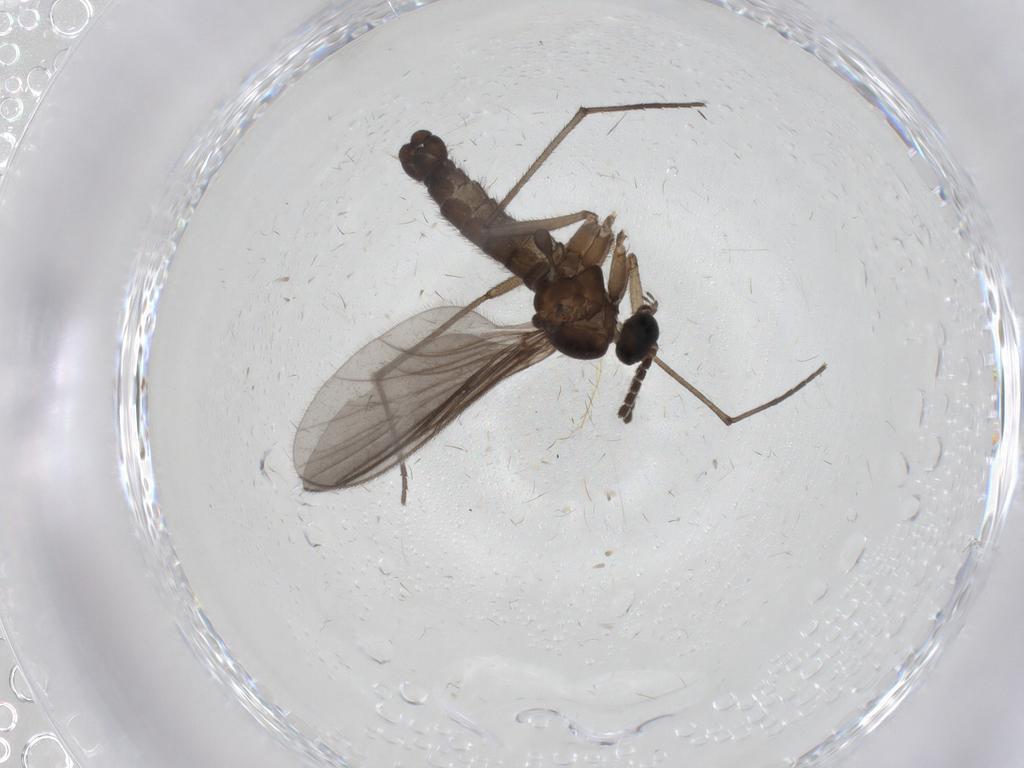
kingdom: Animalia
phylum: Arthropoda
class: Insecta
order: Diptera
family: Sciaridae
